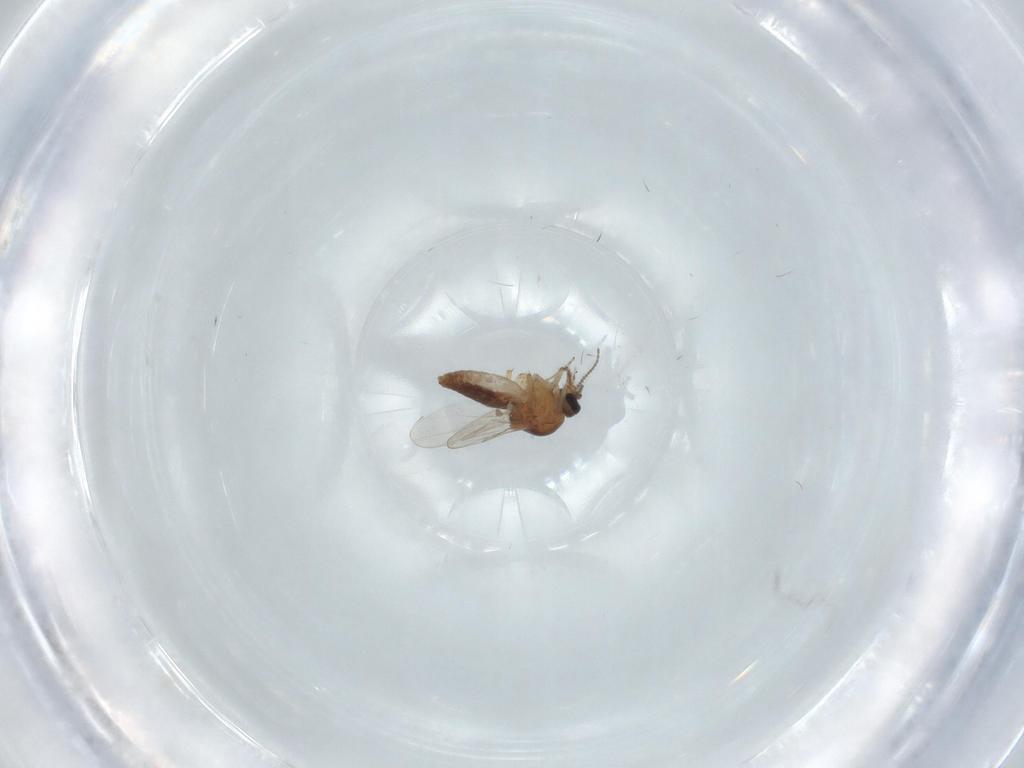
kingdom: Animalia
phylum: Arthropoda
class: Insecta
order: Diptera
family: Ceratopogonidae
